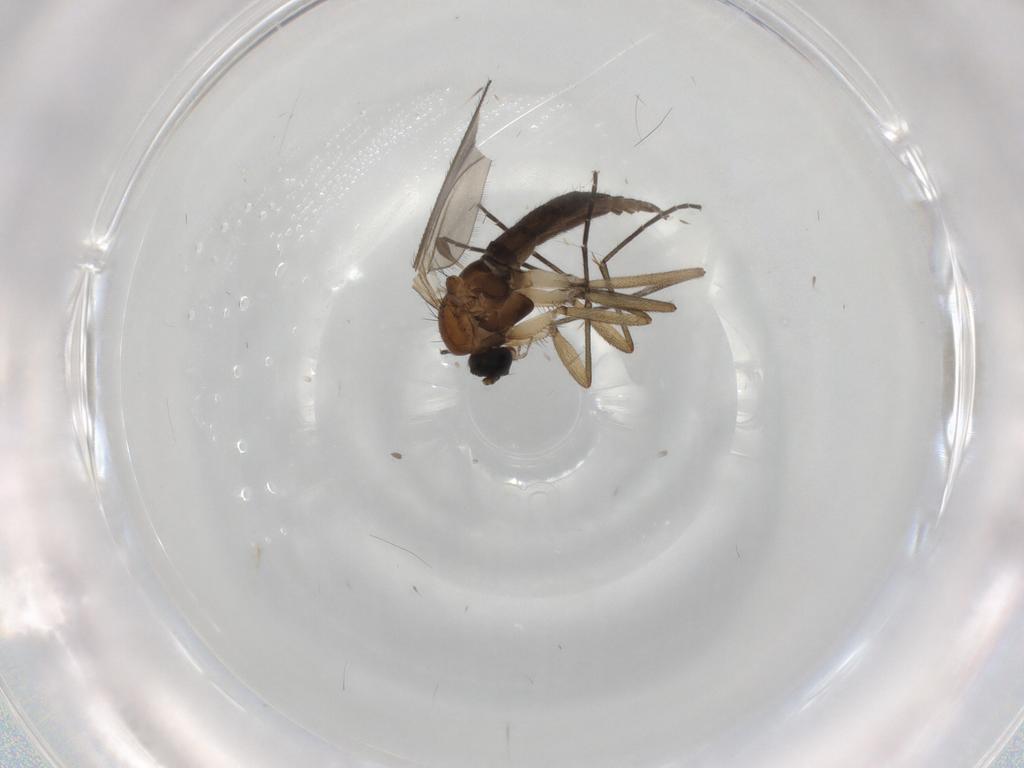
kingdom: Animalia
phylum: Arthropoda
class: Insecta
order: Diptera
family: Sciaridae
